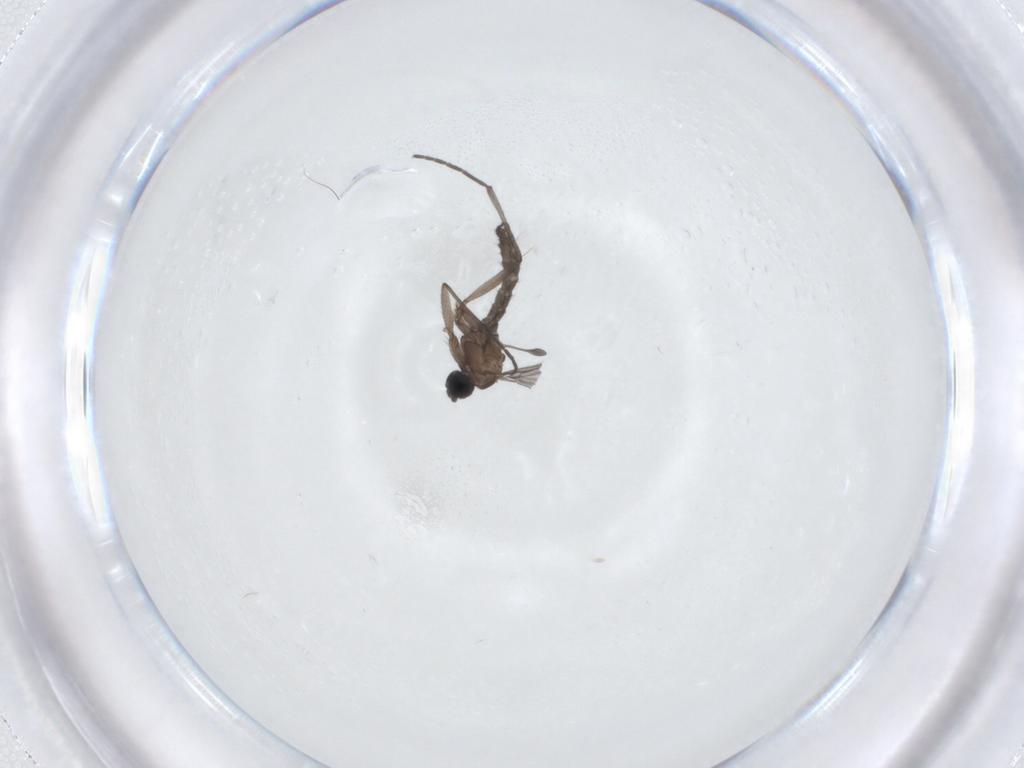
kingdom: Animalia
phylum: Arthropoda
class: Insecta
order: Diptera
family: Sciaridae
